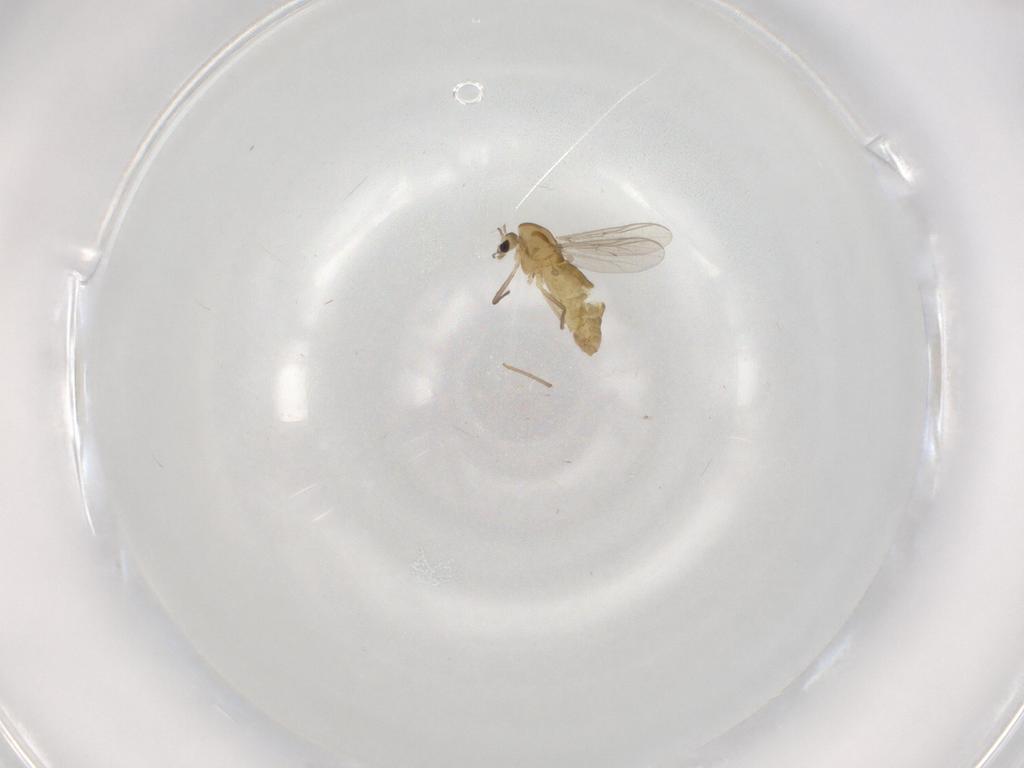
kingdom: Animalia
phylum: Arthropoda
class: Insecta
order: Diptera
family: Chironomidae
